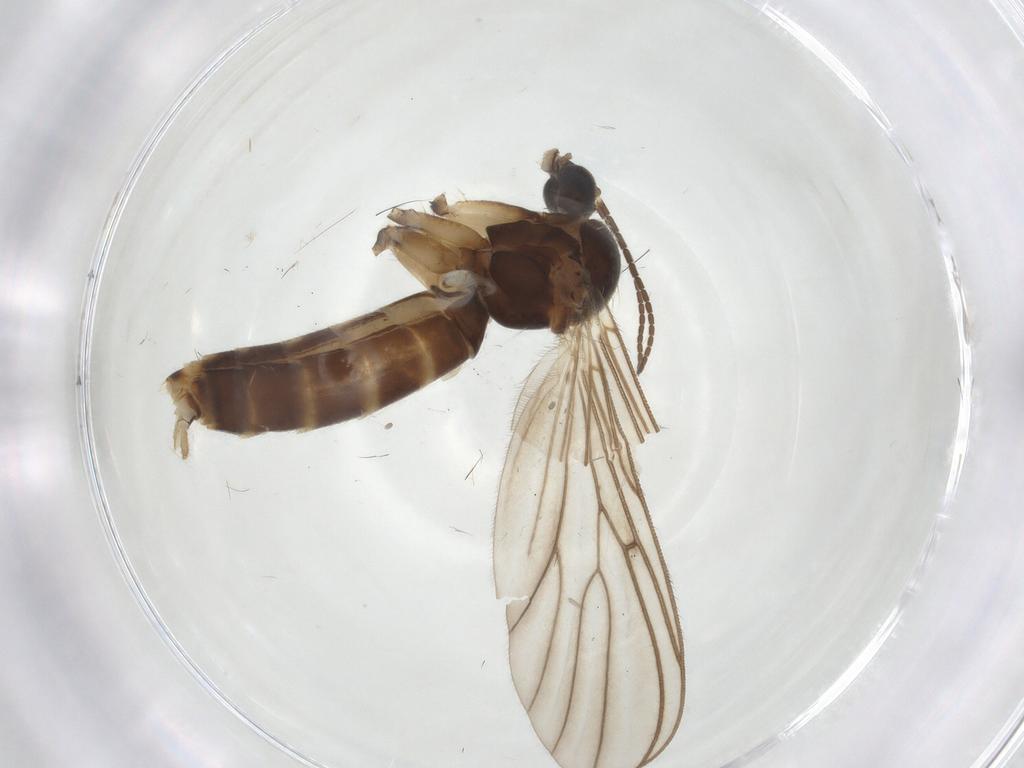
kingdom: Animalia
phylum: Arthropoda
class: Insecta
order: Diptera
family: Mycetophilidae
